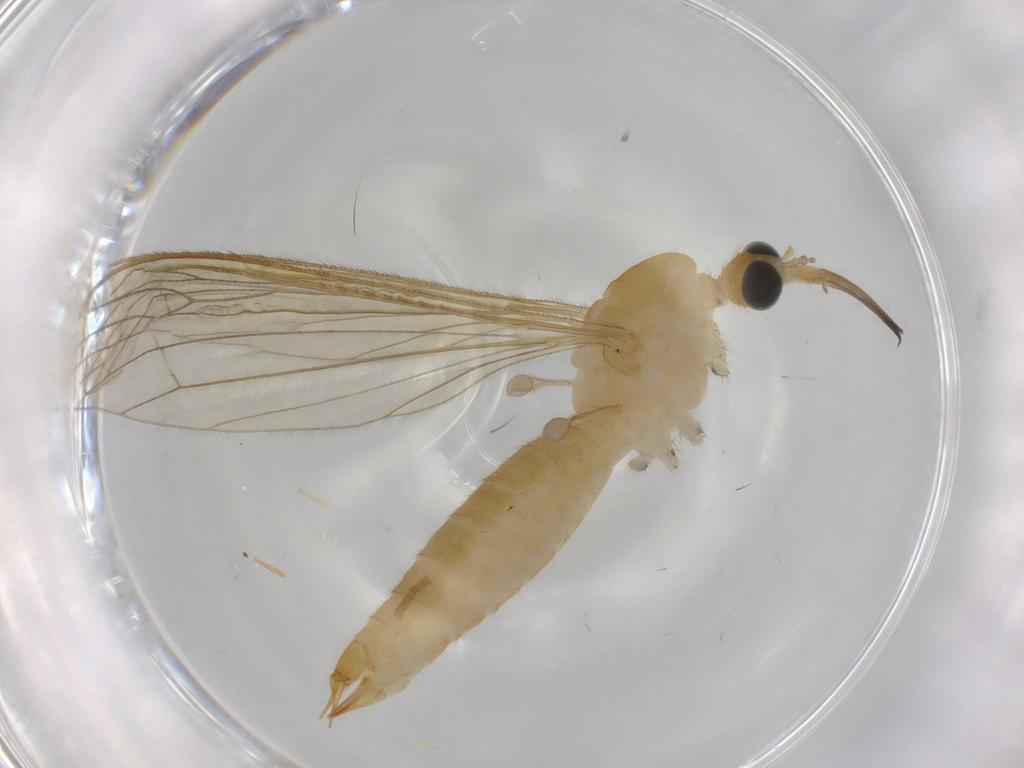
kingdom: Animalia
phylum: Arthropoda
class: Insecta
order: Diptera
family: Limoniidae
